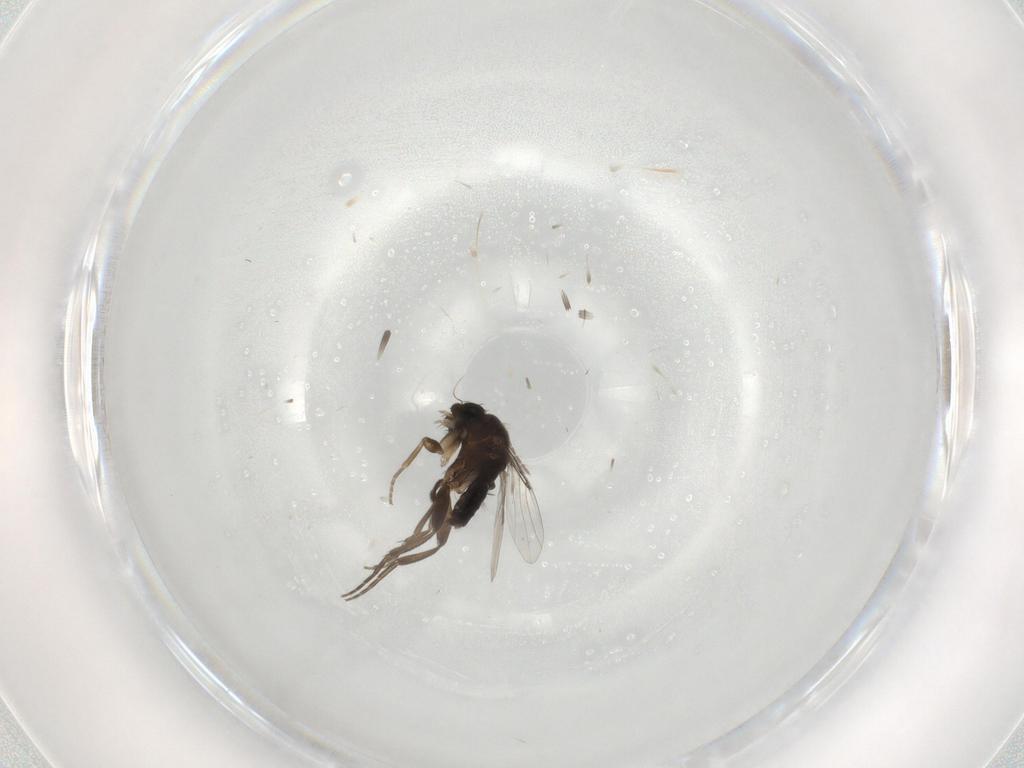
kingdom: Animalia
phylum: Arthropoda
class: Insecta
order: Diptera
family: Phoridae
